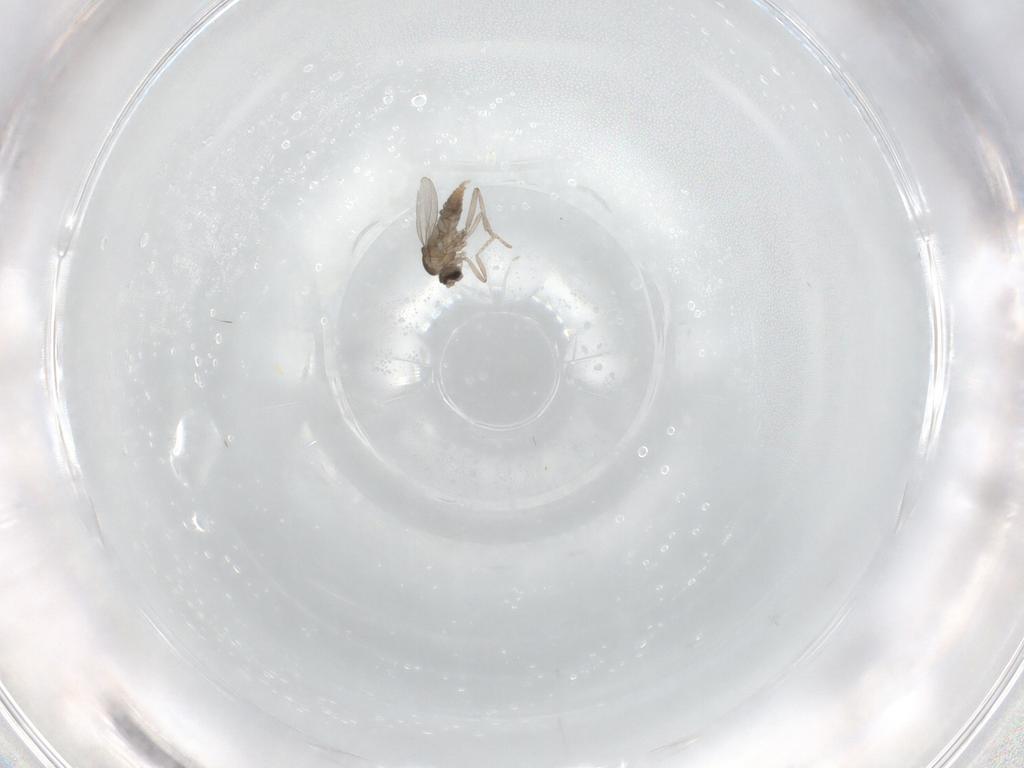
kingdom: Animalia
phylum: Arthropoda
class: Insecta
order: Diptera
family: Cecidomyiidae
